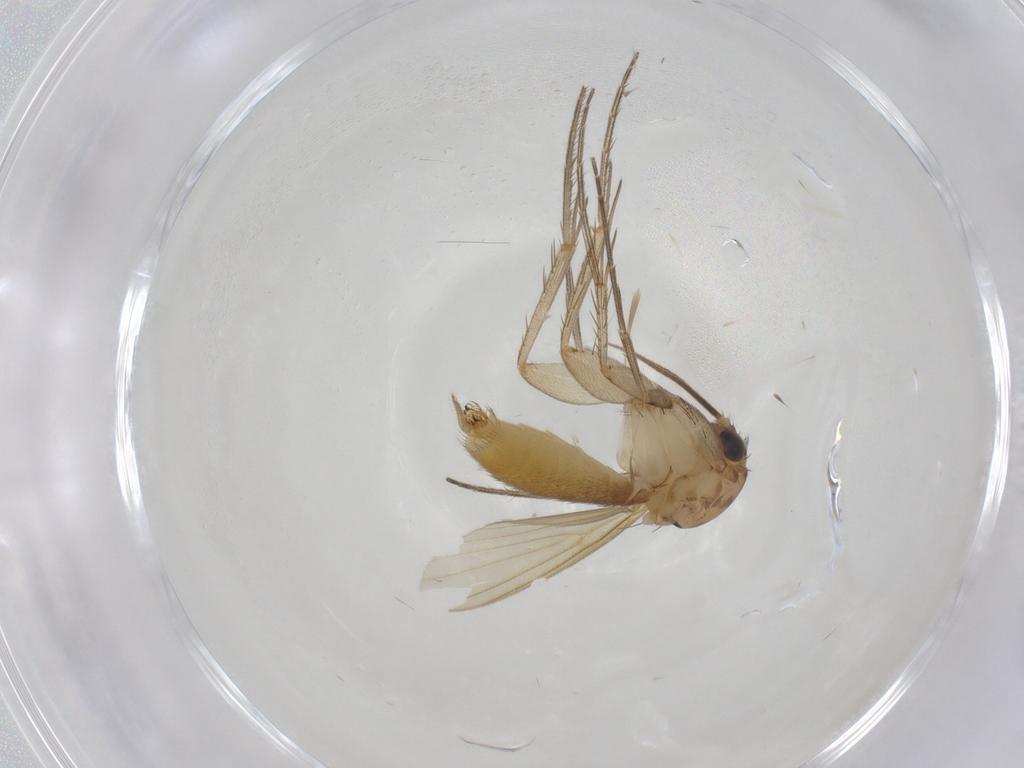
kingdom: Animalia
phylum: Arthropoda
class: Insecta
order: Diptera
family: Mycetophilidae
